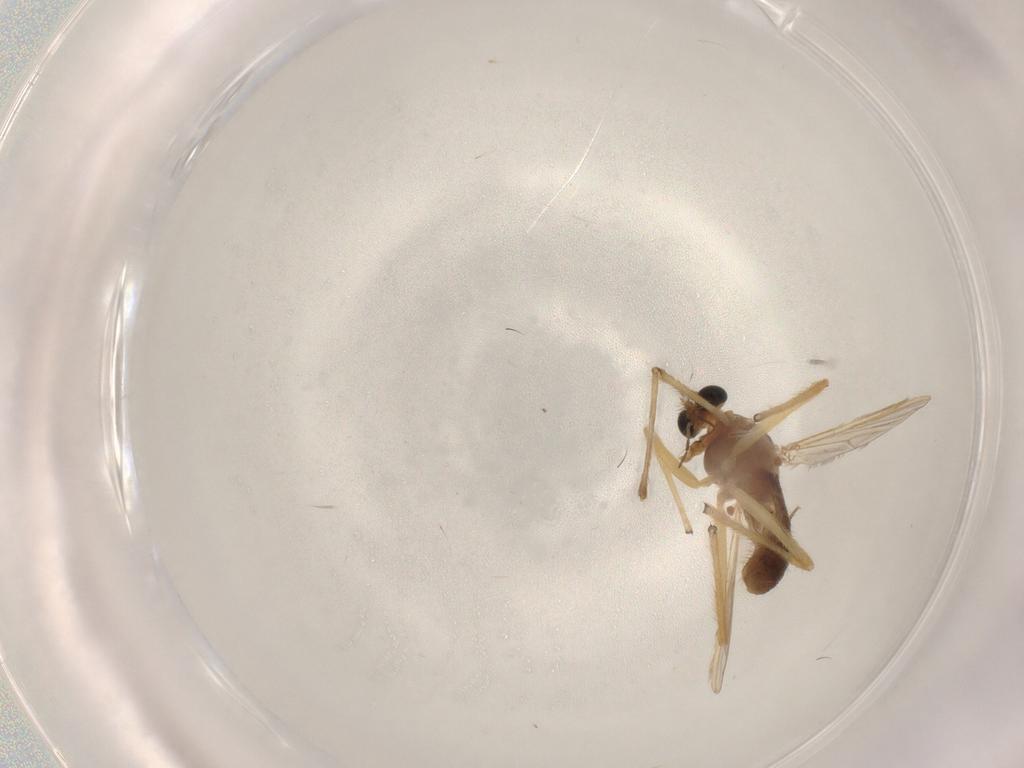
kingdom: Animalia
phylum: Arthropoda
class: Insecta
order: Diptera
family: Chironomidae
